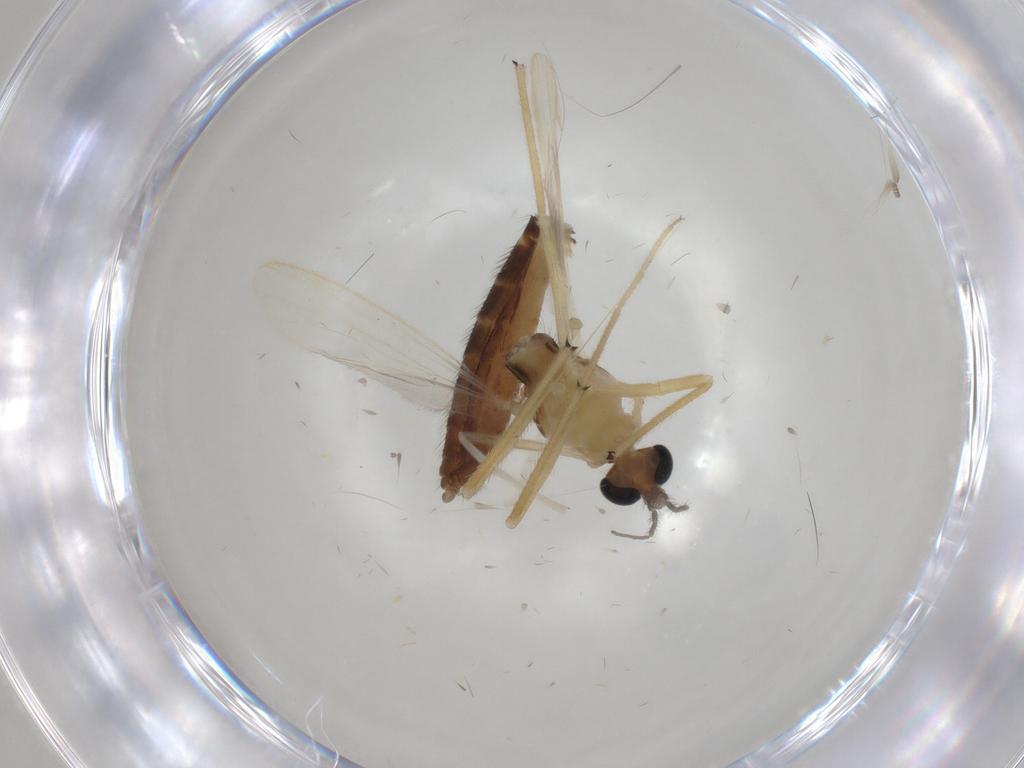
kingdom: Animalia
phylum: Arthropoda
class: Insecta
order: Diptera
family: Chironomidae
